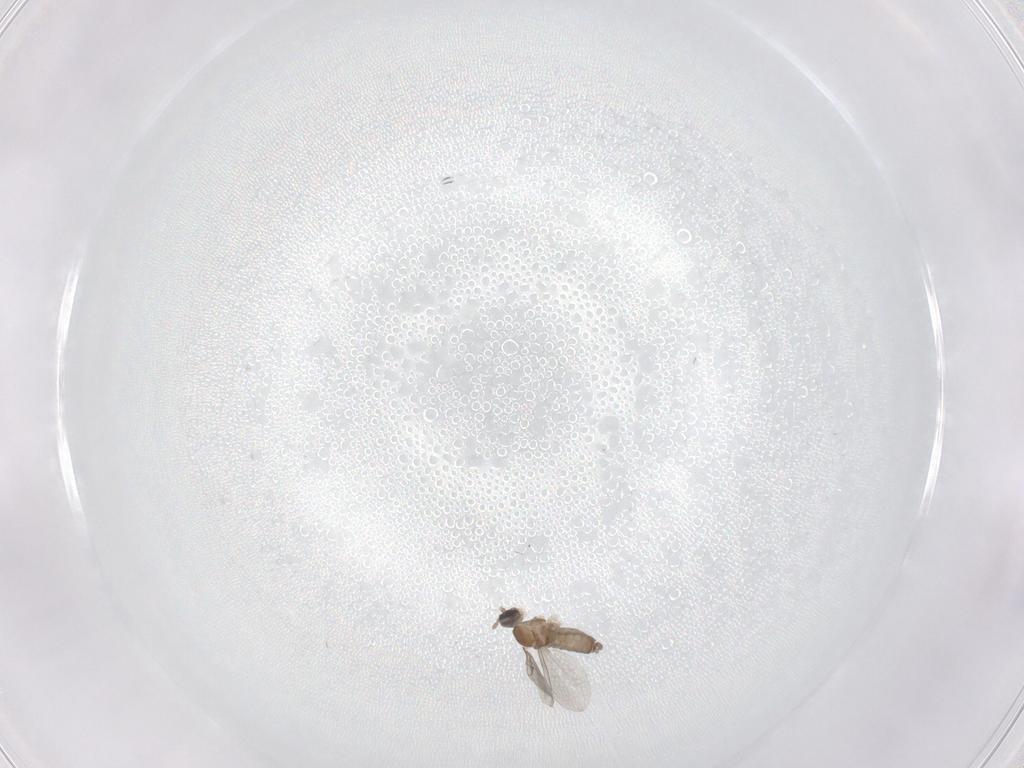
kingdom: Animalia
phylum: Arthropoda
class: Insecta
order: Diptera
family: Cecidomyiidae
